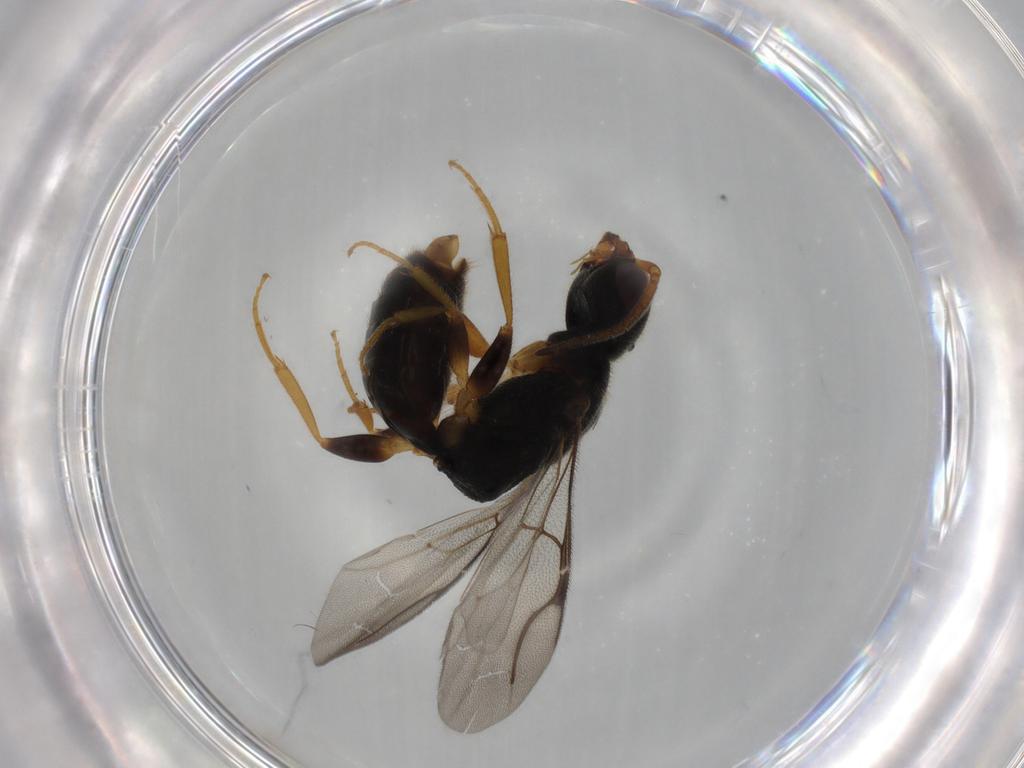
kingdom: Animalia
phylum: Arthropoda
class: Insecta
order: Hymenoptera
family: Bethylidae
